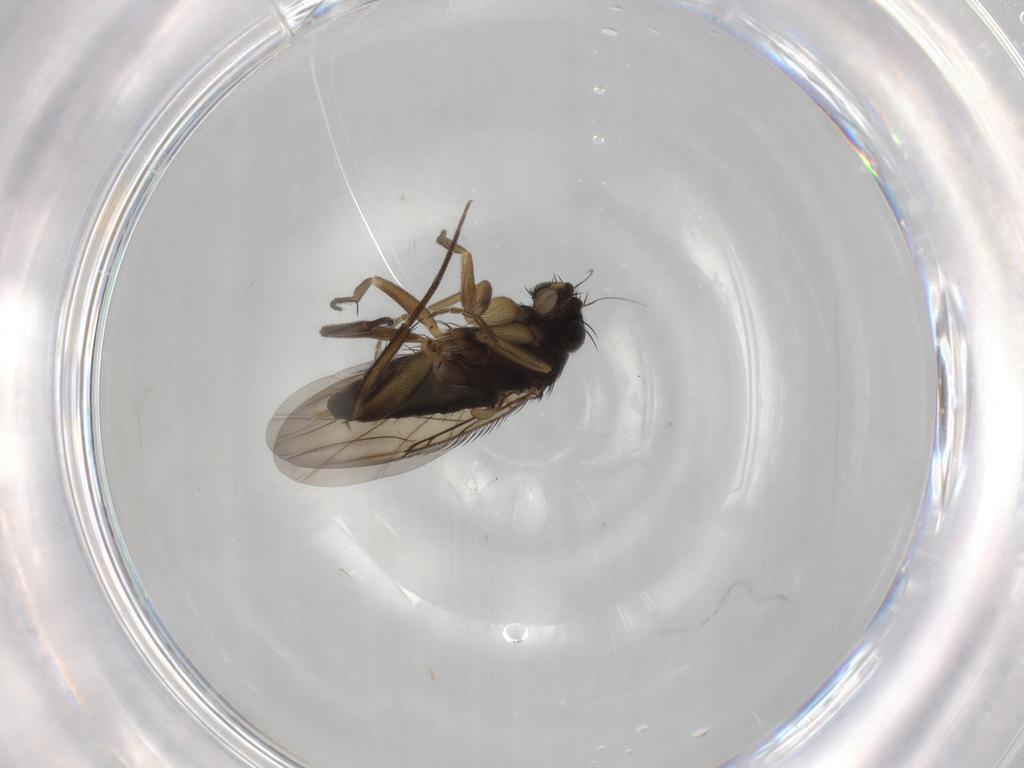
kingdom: Animalia
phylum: Arthropoda
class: Insecta
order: Diptera
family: Phoridae
